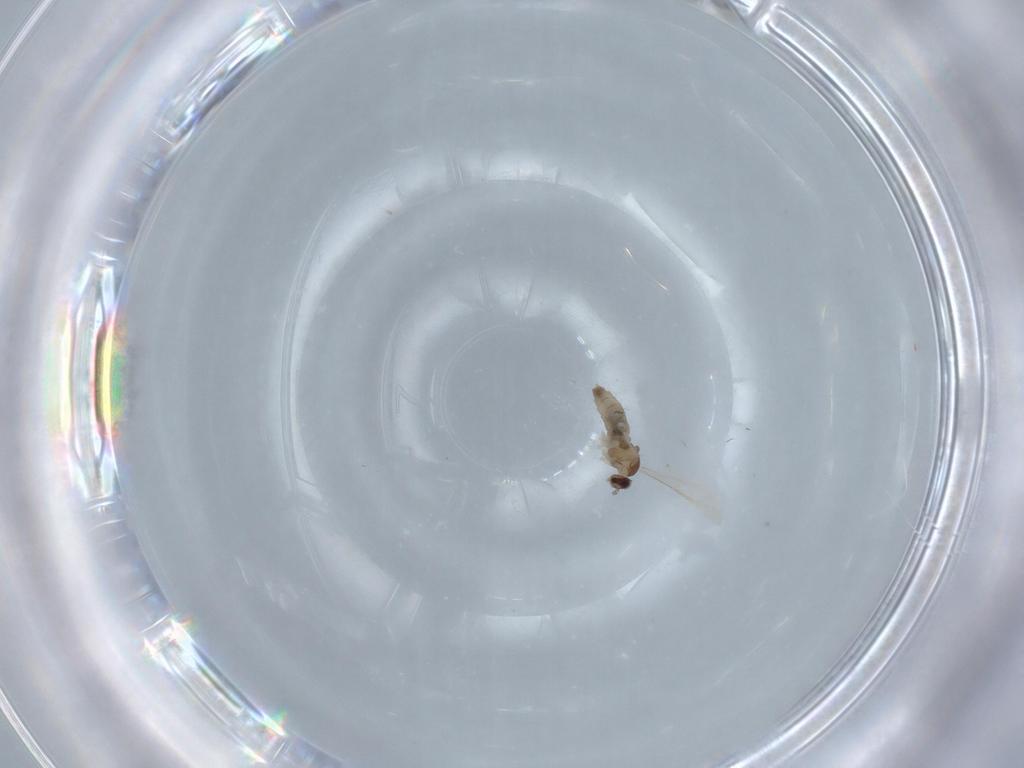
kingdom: Animalia
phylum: Arthropoda
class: Insecta
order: Diptera
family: Cecidomyiidae
